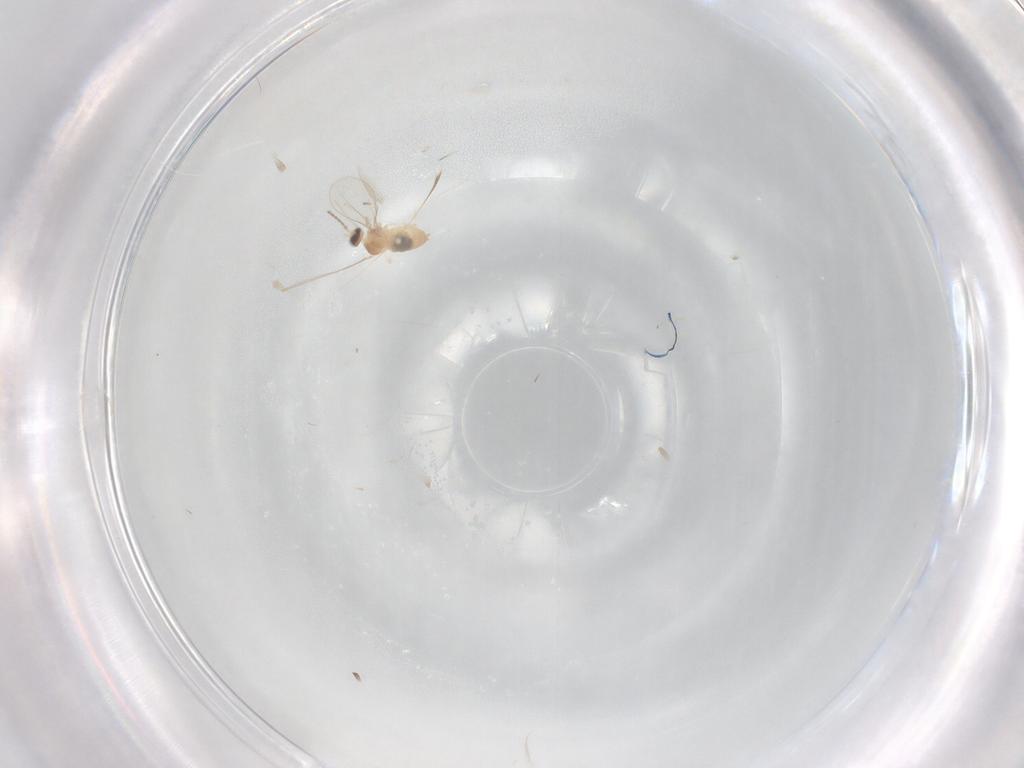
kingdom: Animalia
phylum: Arthropoda
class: Insecta
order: Diptera
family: Cecidomyiidae
